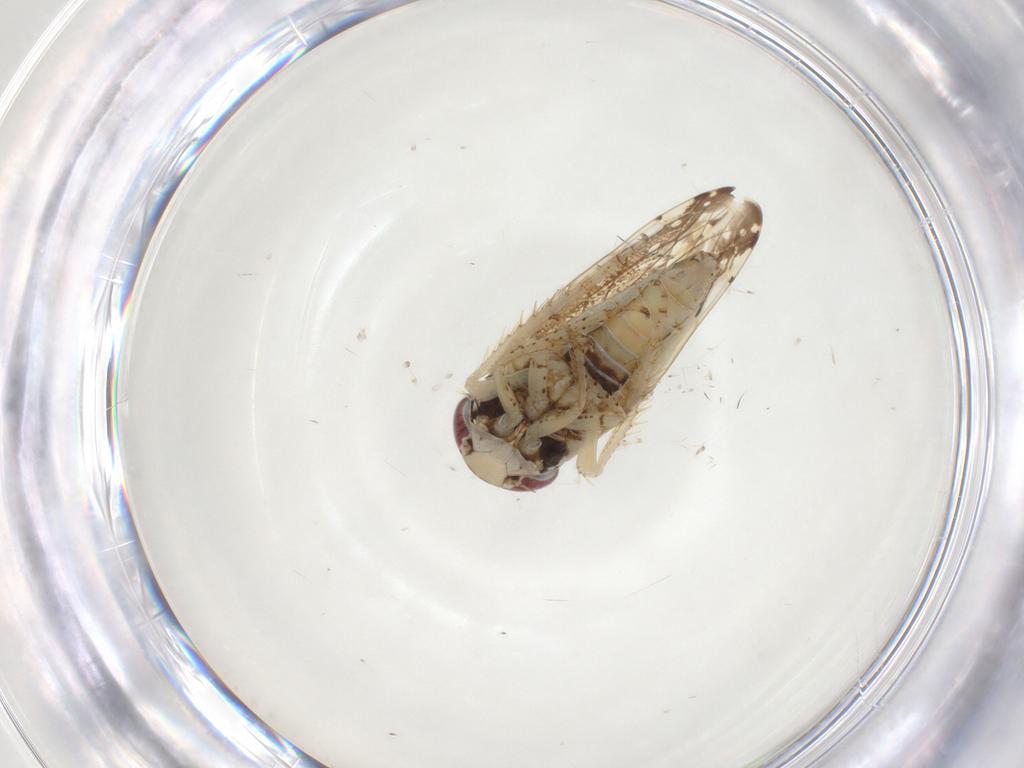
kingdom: Animalia
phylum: Arthropoda
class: Insecta
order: Hemiptera
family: Cicadellidae
